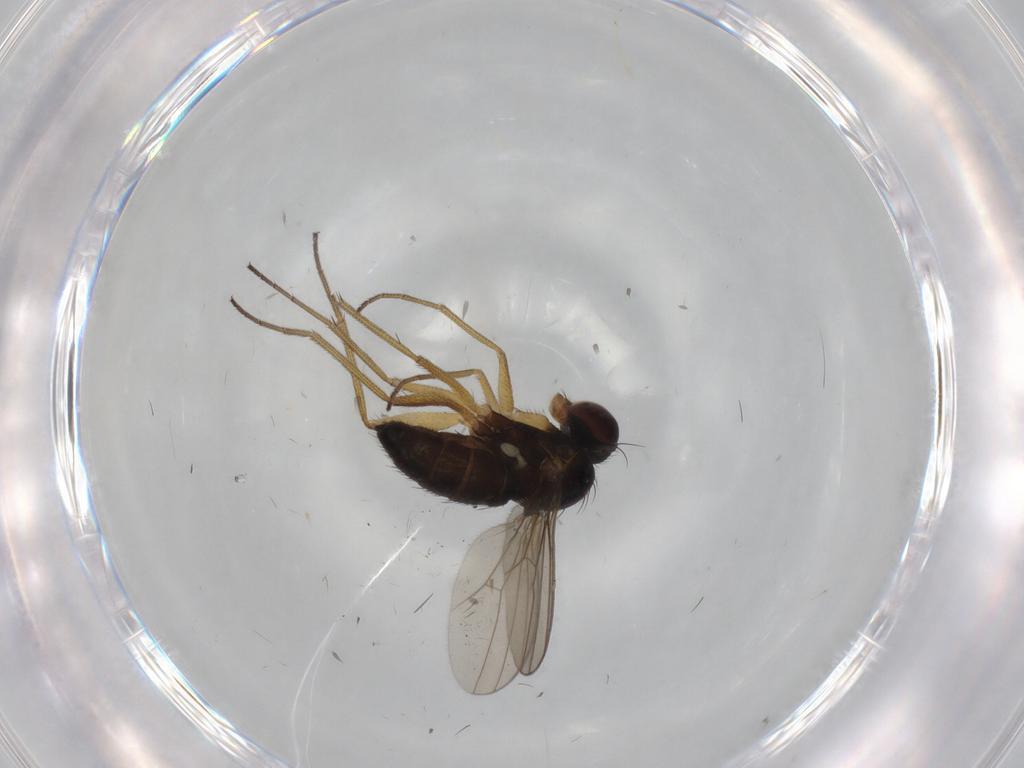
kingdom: Animalia
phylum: Arthropoda
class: Insecta
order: Diptera
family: Dolichopodidae
